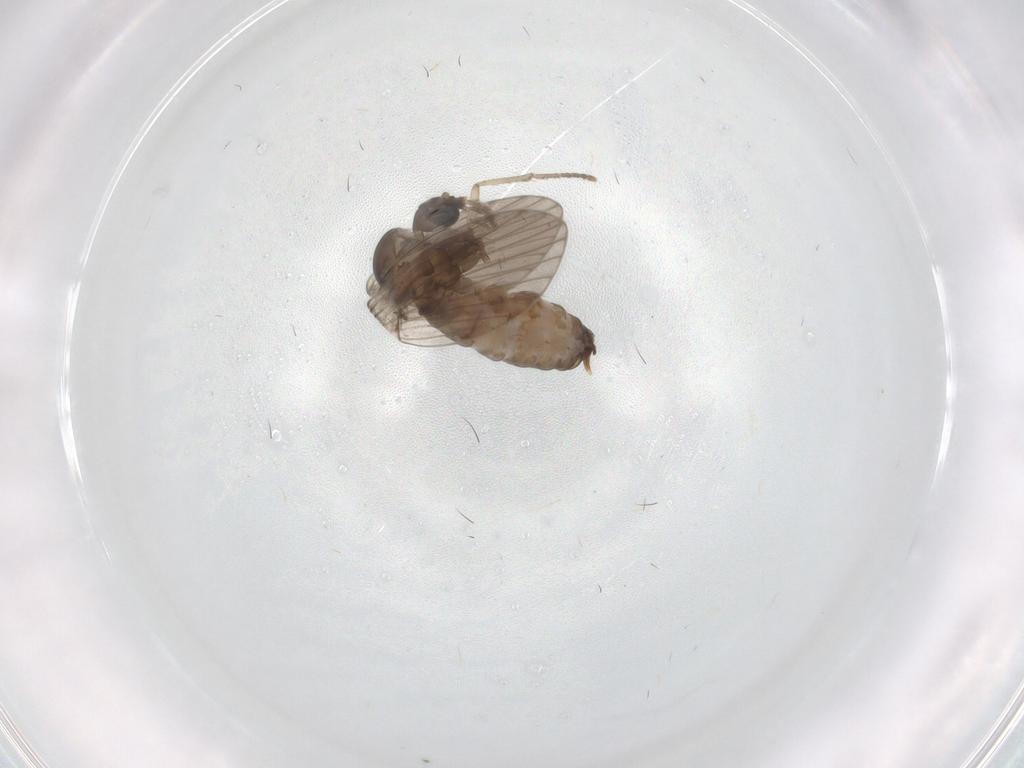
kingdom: Animalia
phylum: Arthropoda
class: Insecta
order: Diptera
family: Psychodidae
